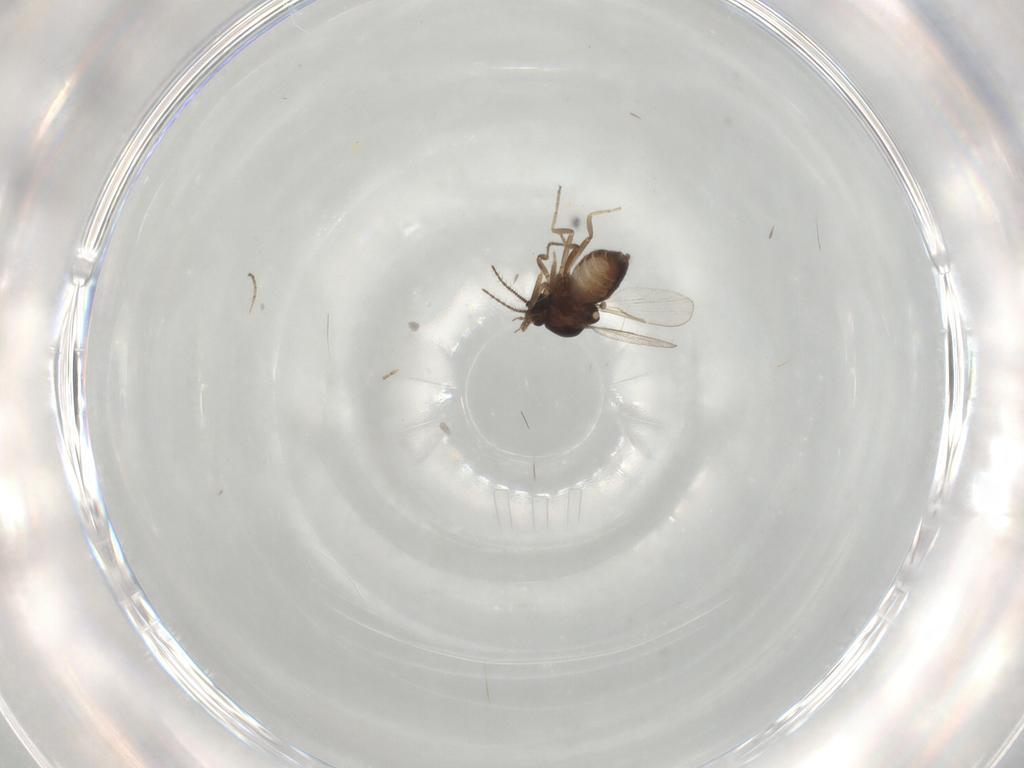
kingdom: Animalia
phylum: Arthropoda
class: Insecta
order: Diptera
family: Ceratopogonidae
